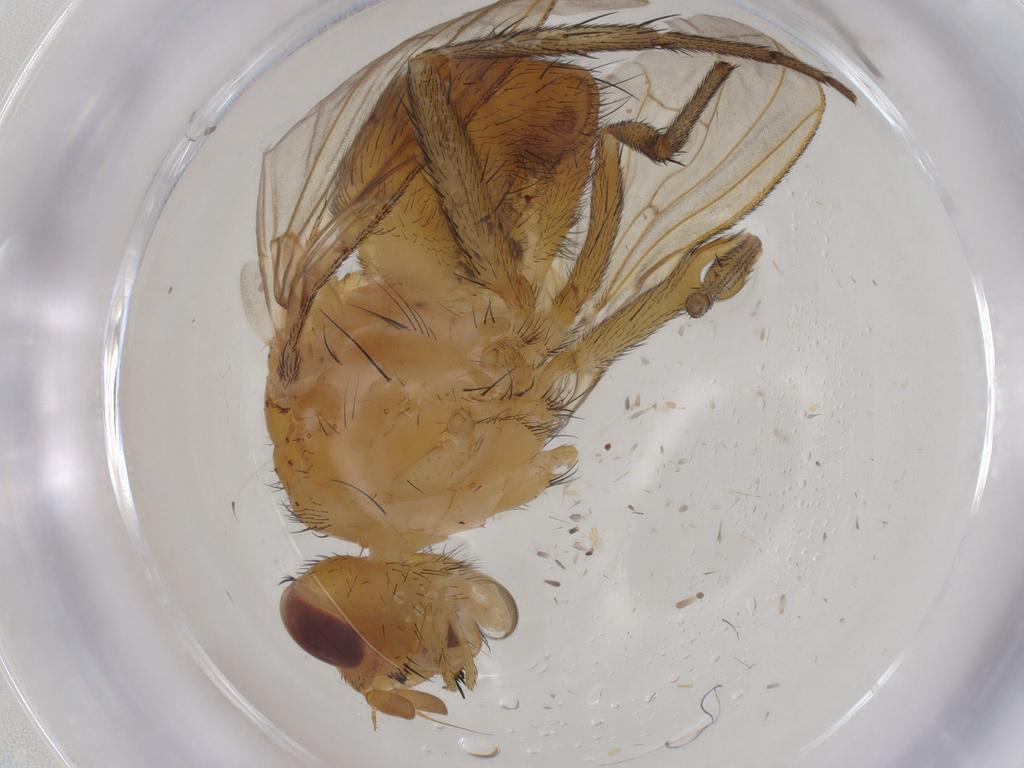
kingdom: Animalia
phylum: Arthropoda
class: Insecta
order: Diptera
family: Tachinidae
